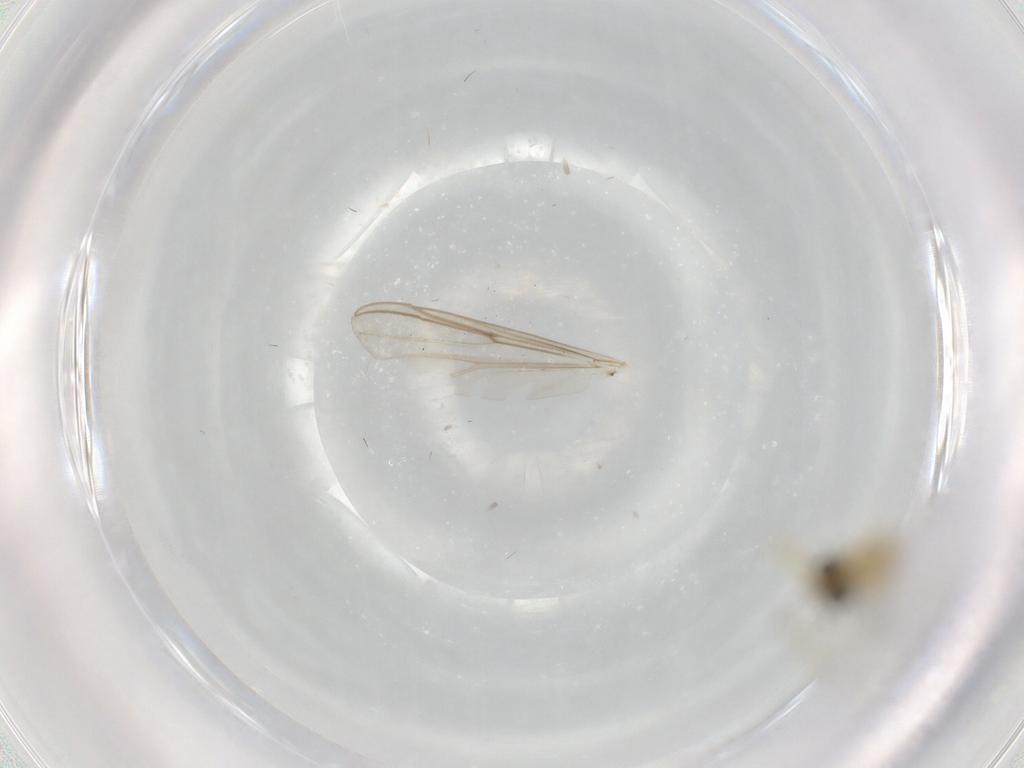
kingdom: Animalia
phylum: Arthropoda
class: Insecta
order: Diptera
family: Chironomidae
